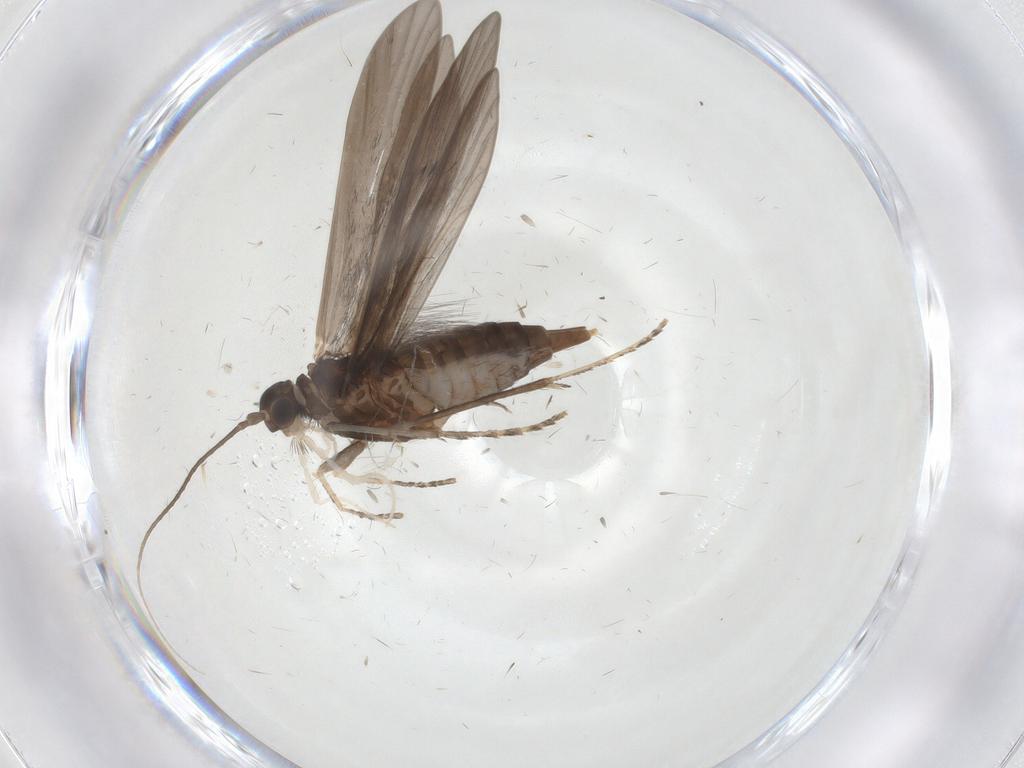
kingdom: Animalia
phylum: Arthropoda
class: Insecta
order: Trichoptera
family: Xiphocentronidae
